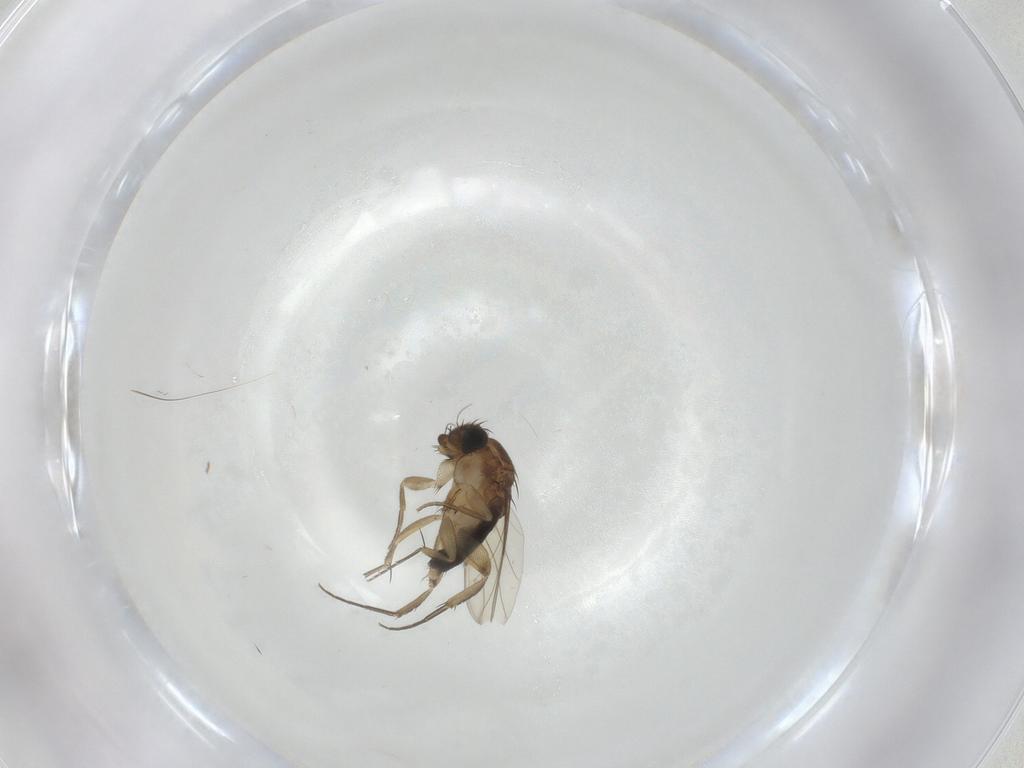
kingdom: Animalia
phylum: Arthropoda
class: Insecta
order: Diptera
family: Phoridae
